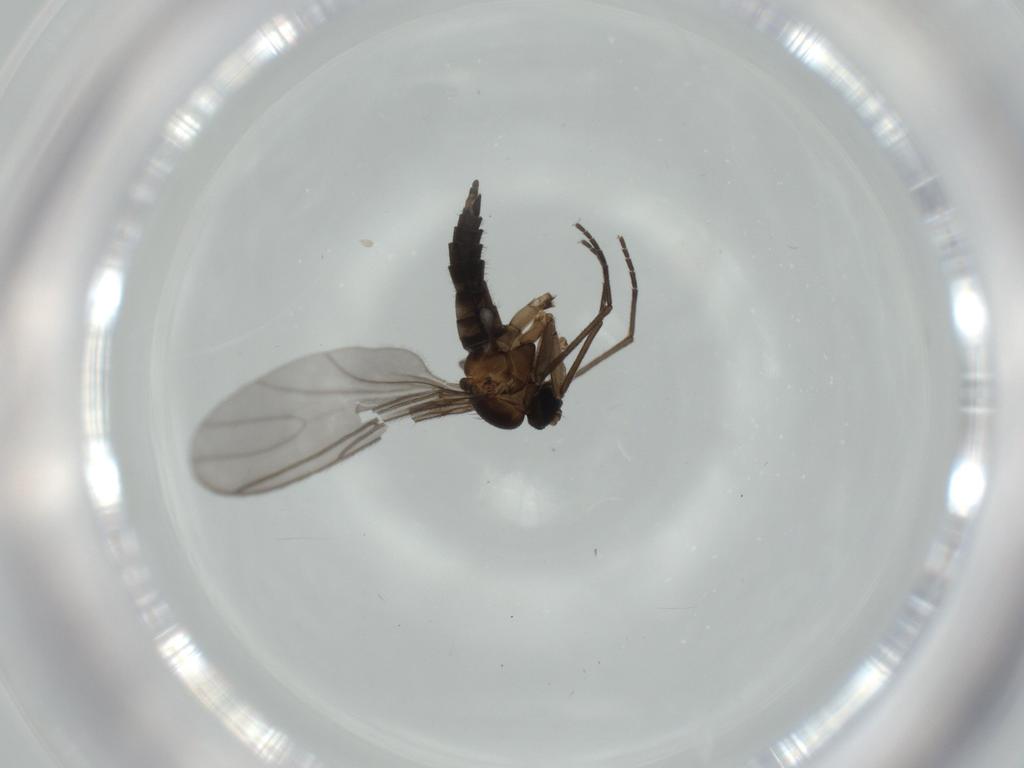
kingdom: Animalia
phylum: Arthropoda
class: Insecta
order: Diptera
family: Sciaridae
